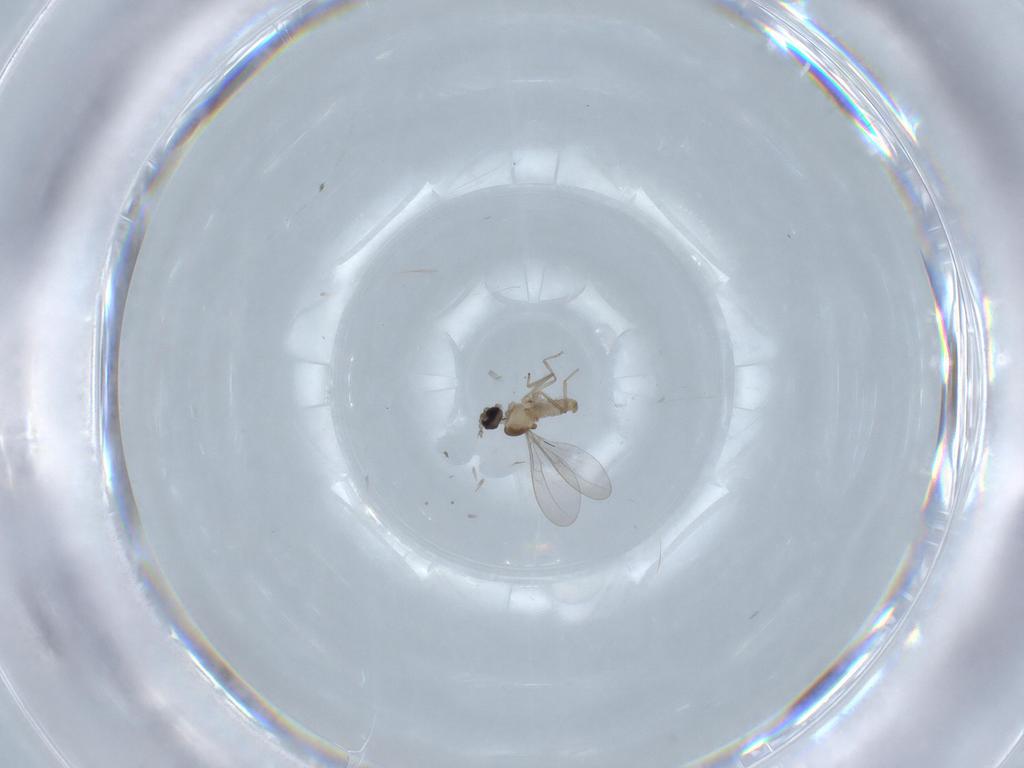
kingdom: Animalia
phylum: Arthropoda
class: Insecta
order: Diptera
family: Cecidomyiidae
